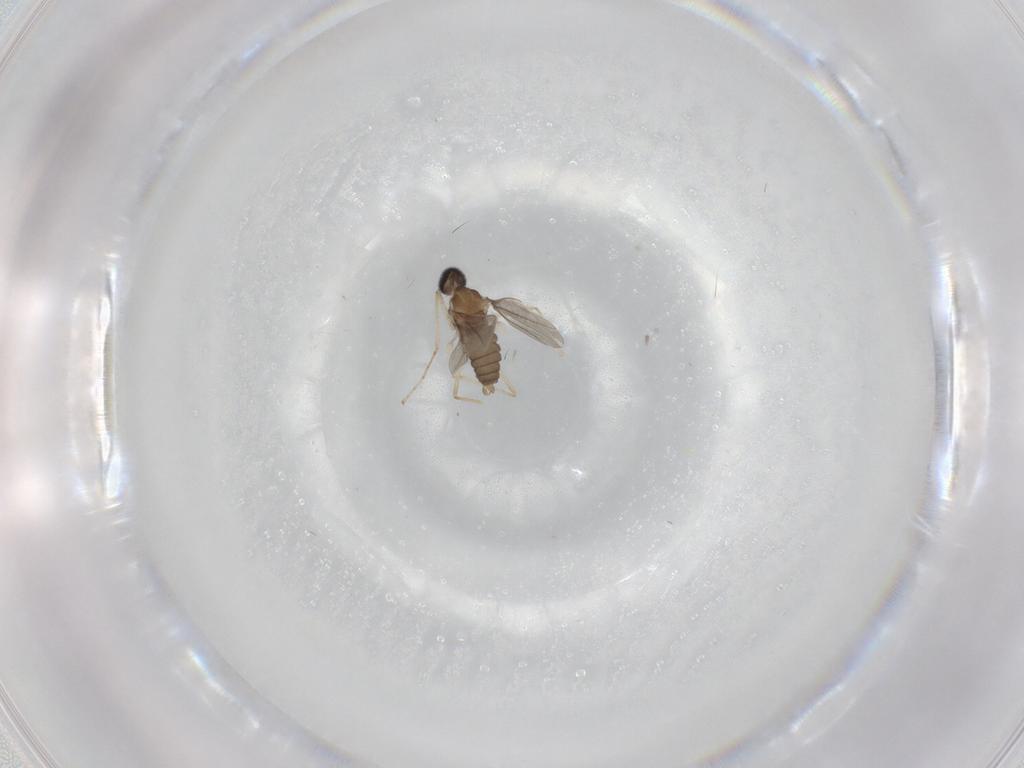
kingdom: Animalia
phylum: Arthropoda
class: Insecta
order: Diptera
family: Cecidomyiidae
